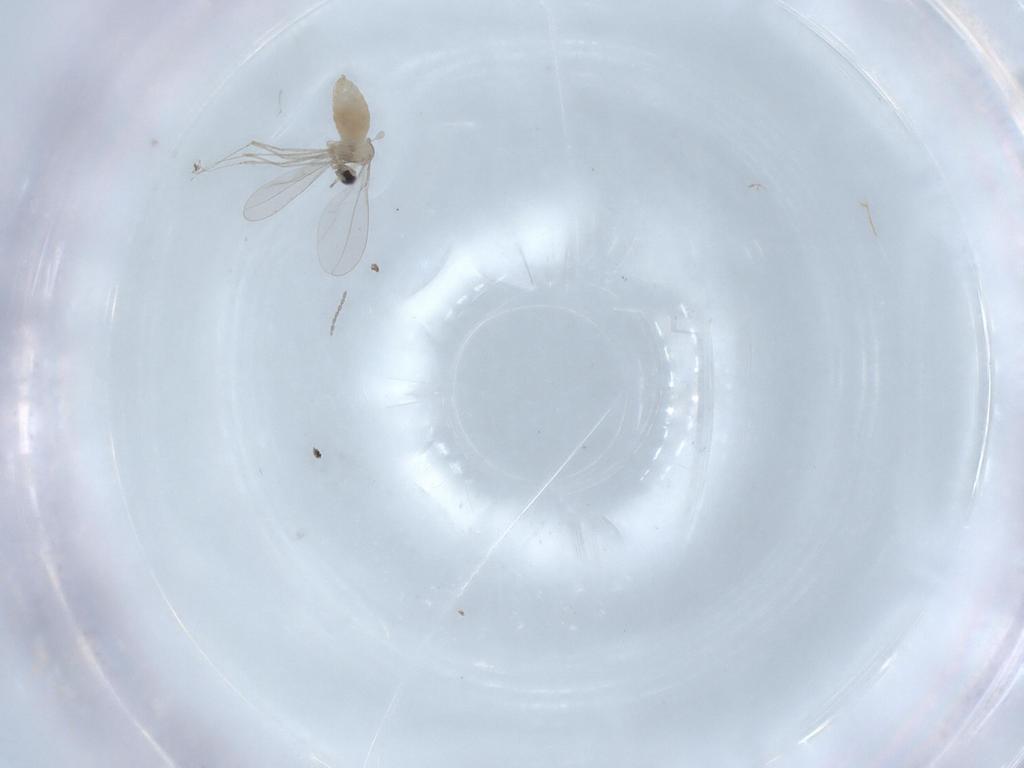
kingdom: Animalia
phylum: Arthropoda
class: Insecta
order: Diptera
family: Cecidomyiidae
